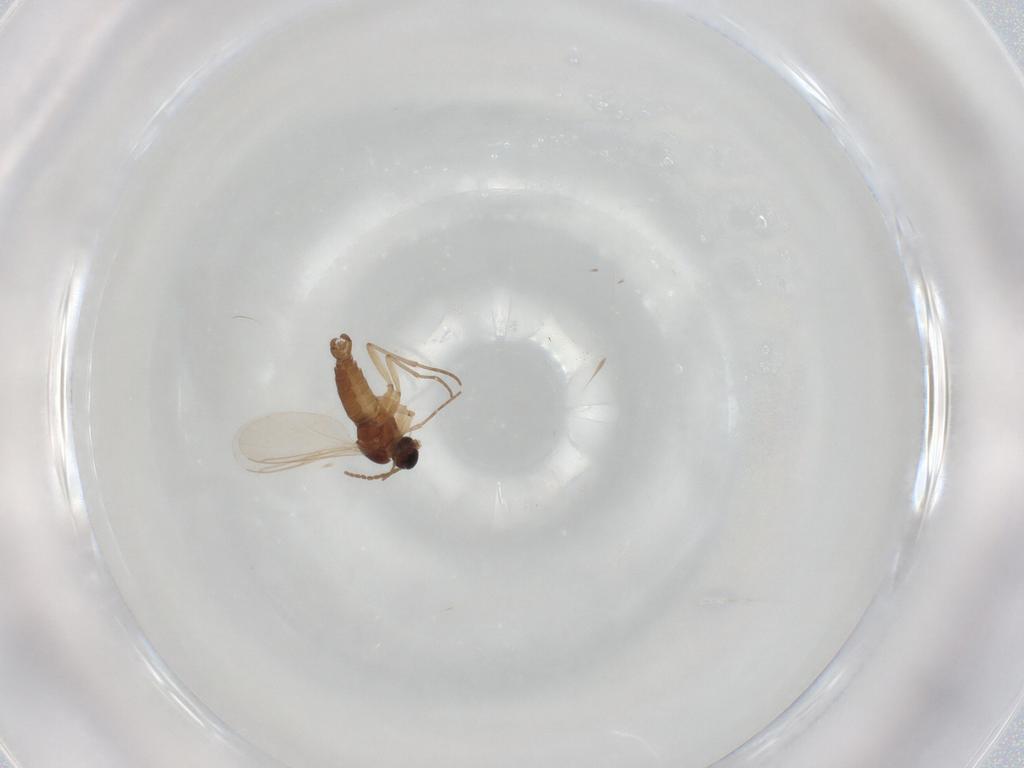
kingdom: Animalia
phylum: Arthropoda
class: Insecta
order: Diptera
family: Sciaridae
